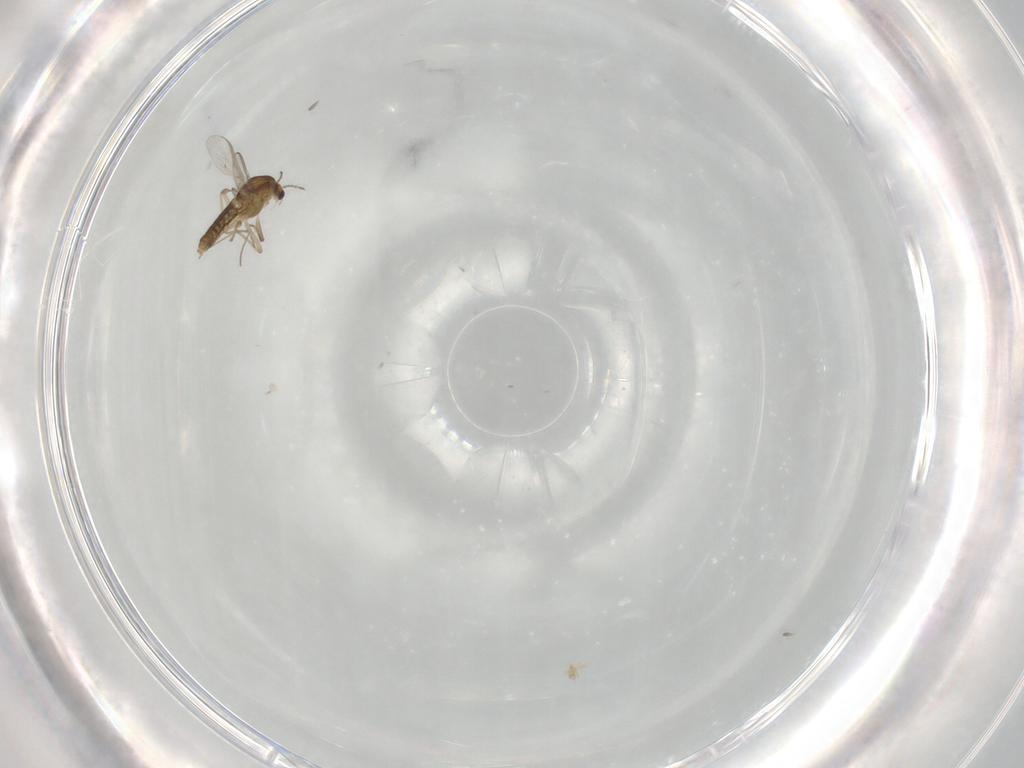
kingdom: Animalia
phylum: Arthropoda
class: Insecta
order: Diptera
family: Chironomidae
